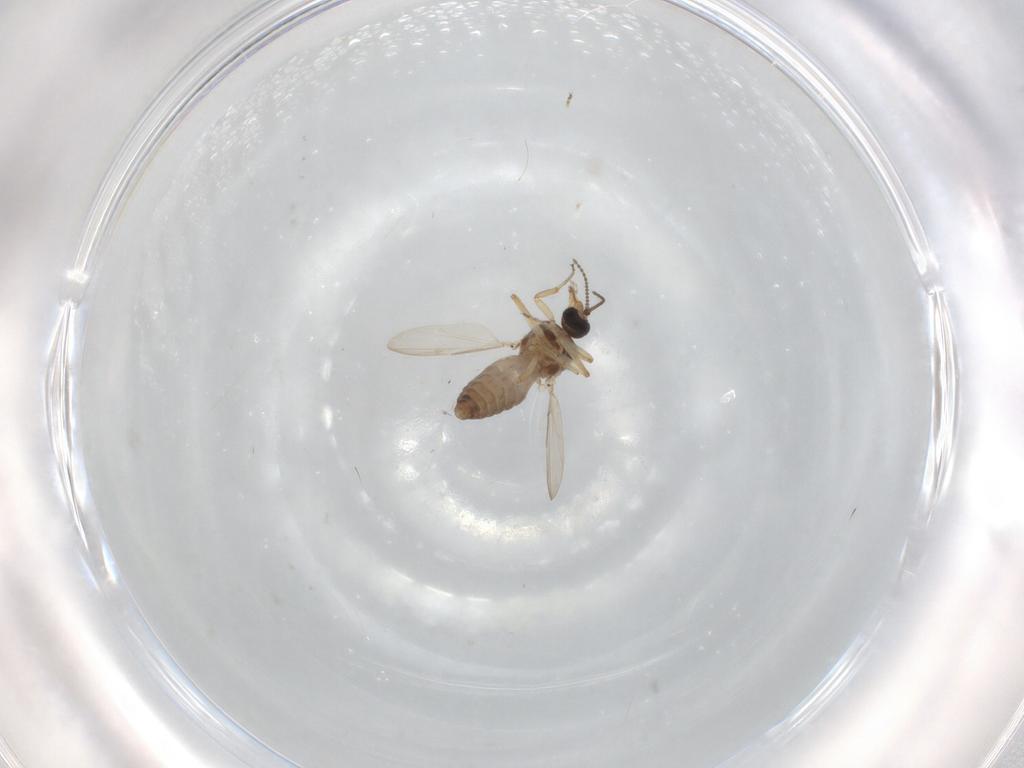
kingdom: Animalia
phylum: Arthropoda
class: Insecta
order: Diptera
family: Ceratopogonidae
